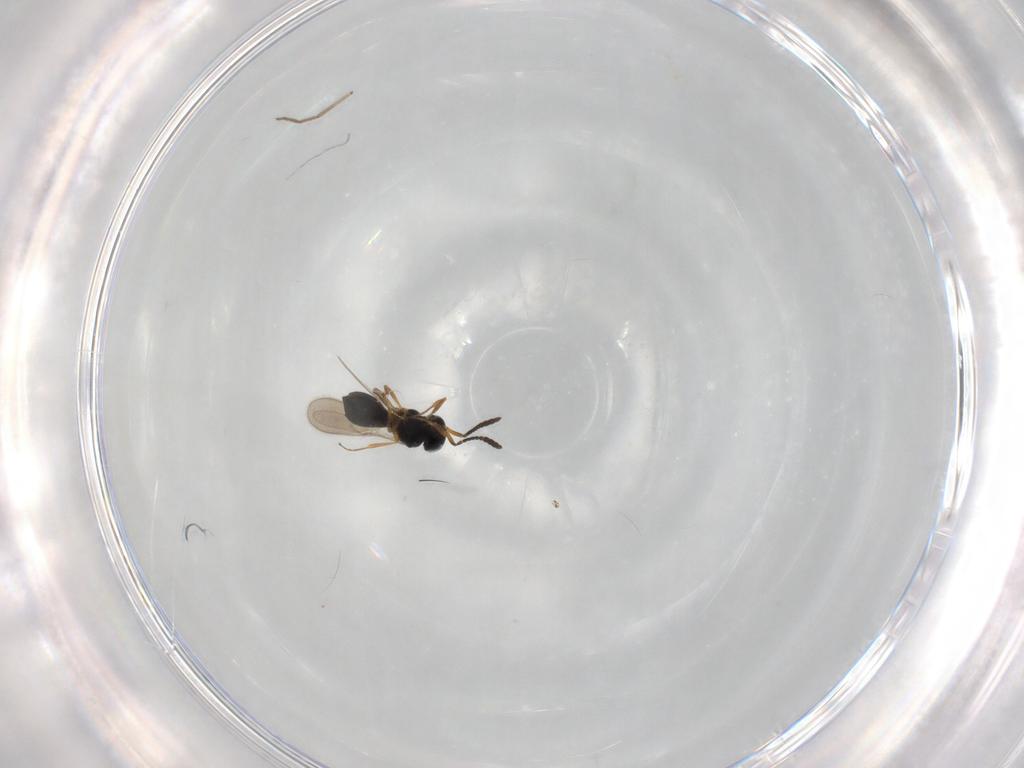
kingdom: Animalia
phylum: Arthropoda
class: Insecta
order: Hymenoptera
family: Scelionidae
